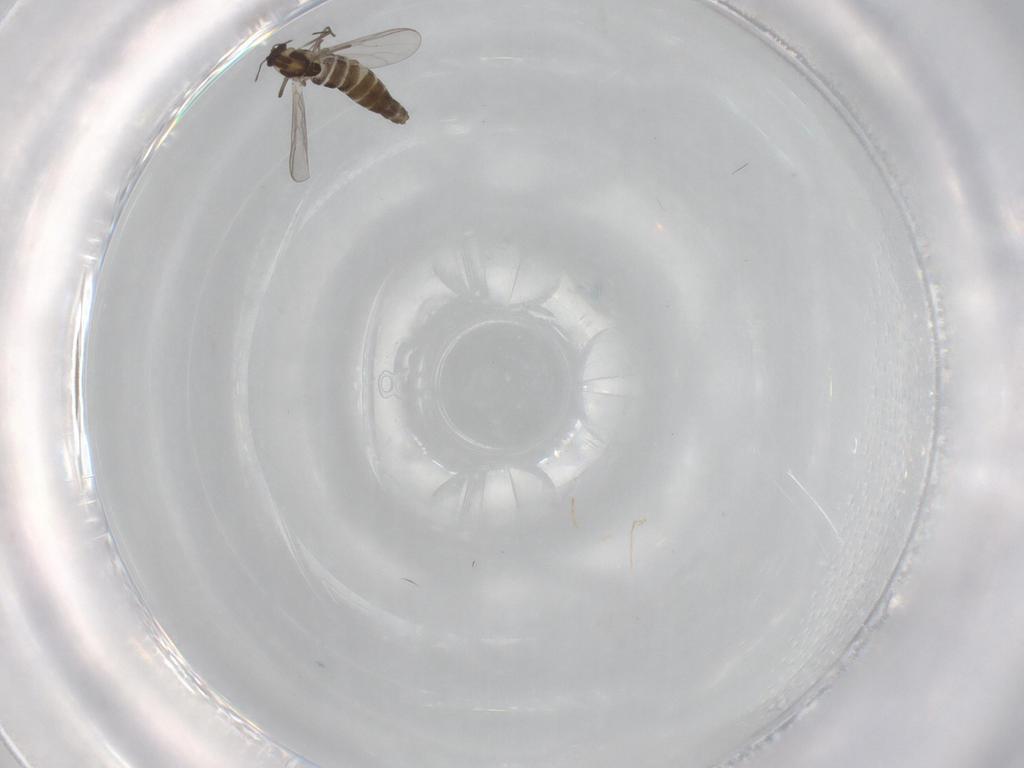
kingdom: Animalia
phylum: Arthropoda
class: Insecta
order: Diptera
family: Chironomidae
